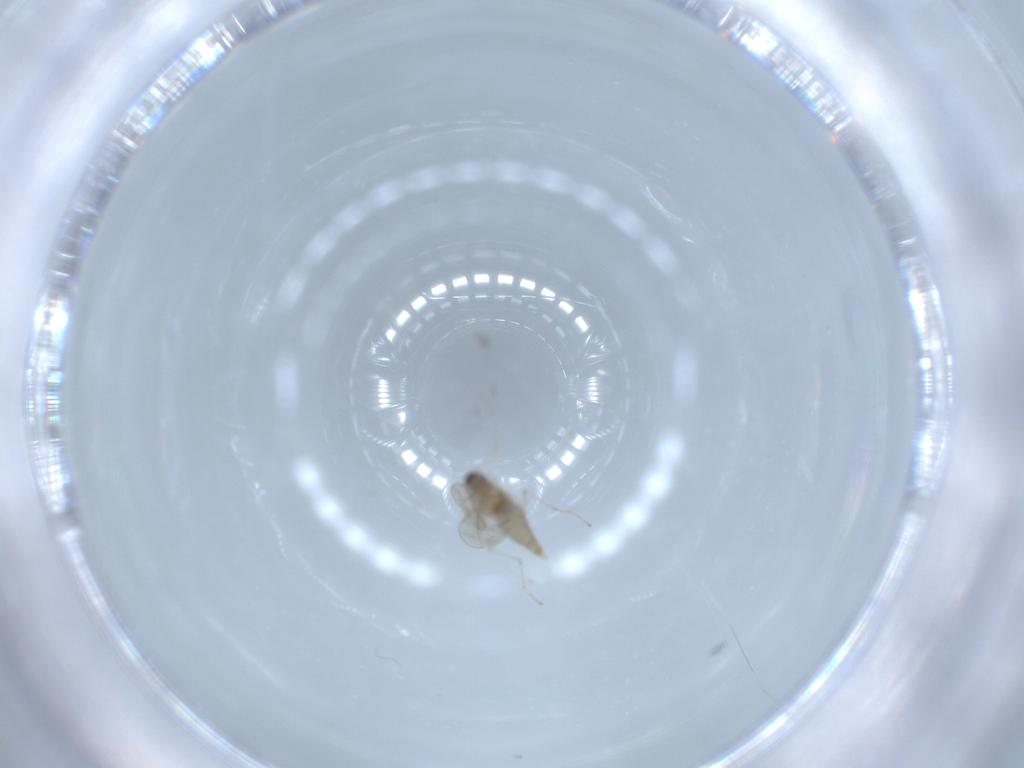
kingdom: Animalia
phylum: Arthropoda
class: Insecta
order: Diptera
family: Cecidomyiidae
